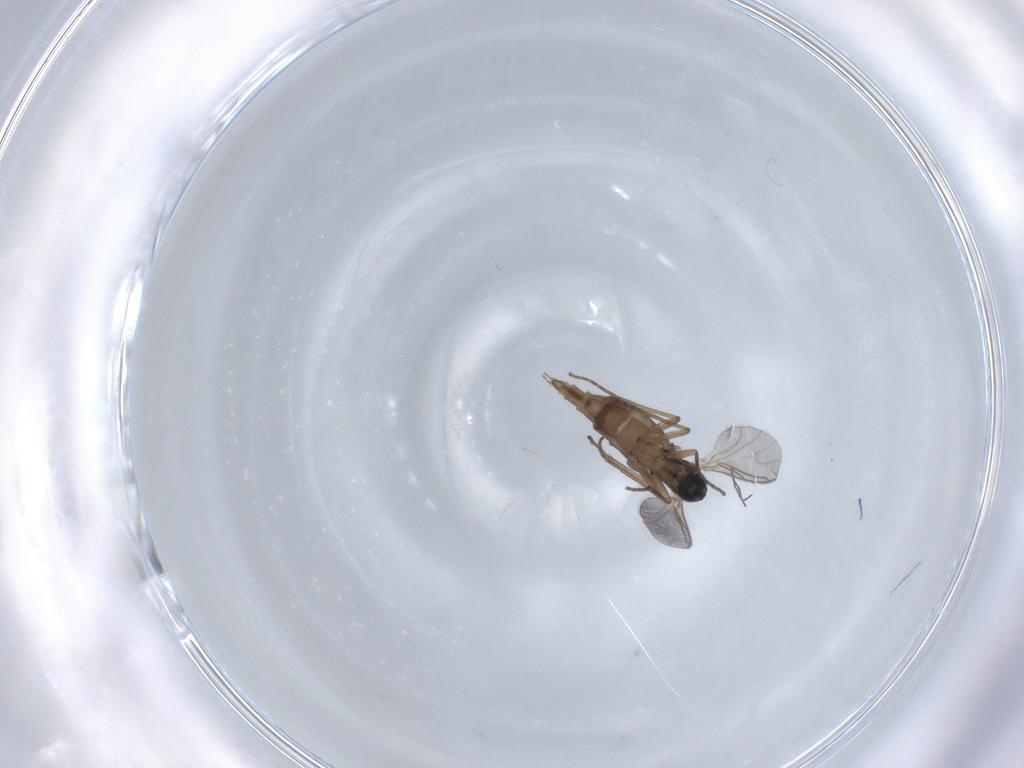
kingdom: Animalia
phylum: Arthropoda
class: Insecta
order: Diptera
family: Sciaridae
